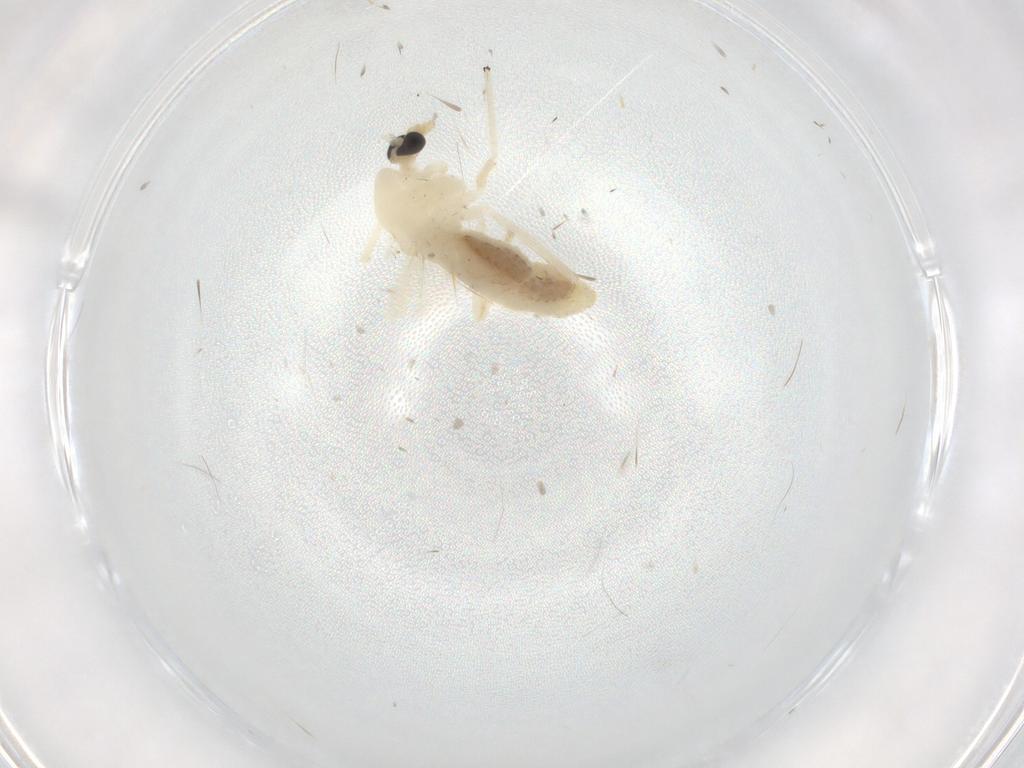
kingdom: Animalia
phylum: Arthropoda
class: Insecta
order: Diptera
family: Chironomidae
